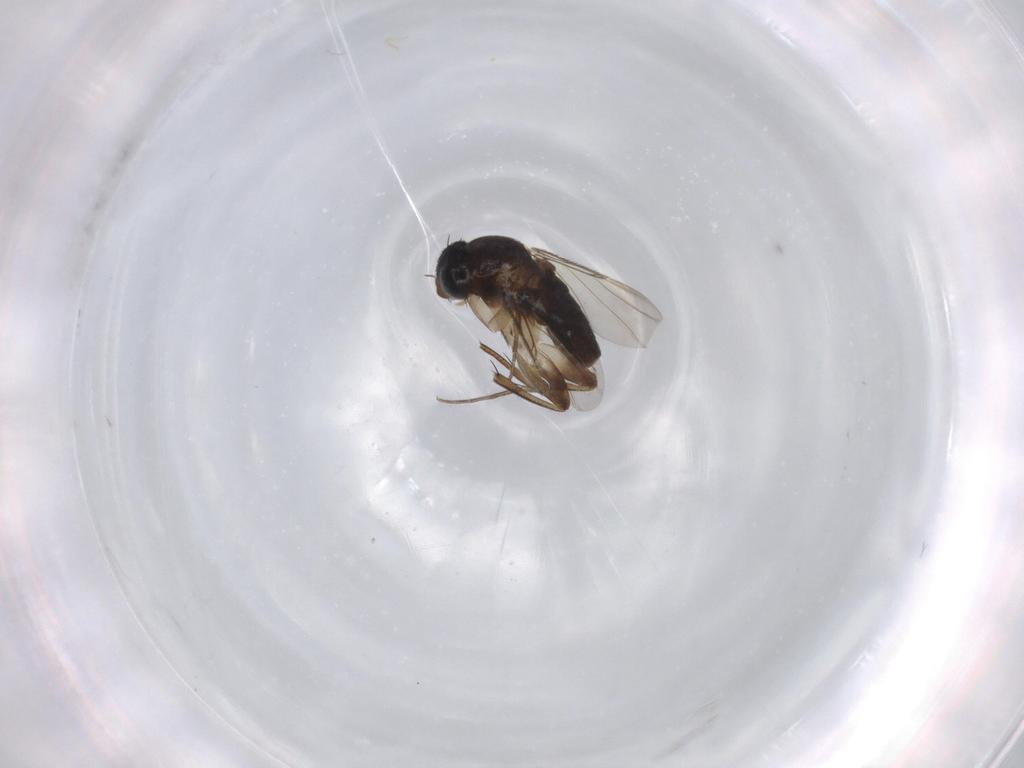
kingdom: Animalia
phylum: Arthropoda
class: Insecta
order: Diptera
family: Phoridae
